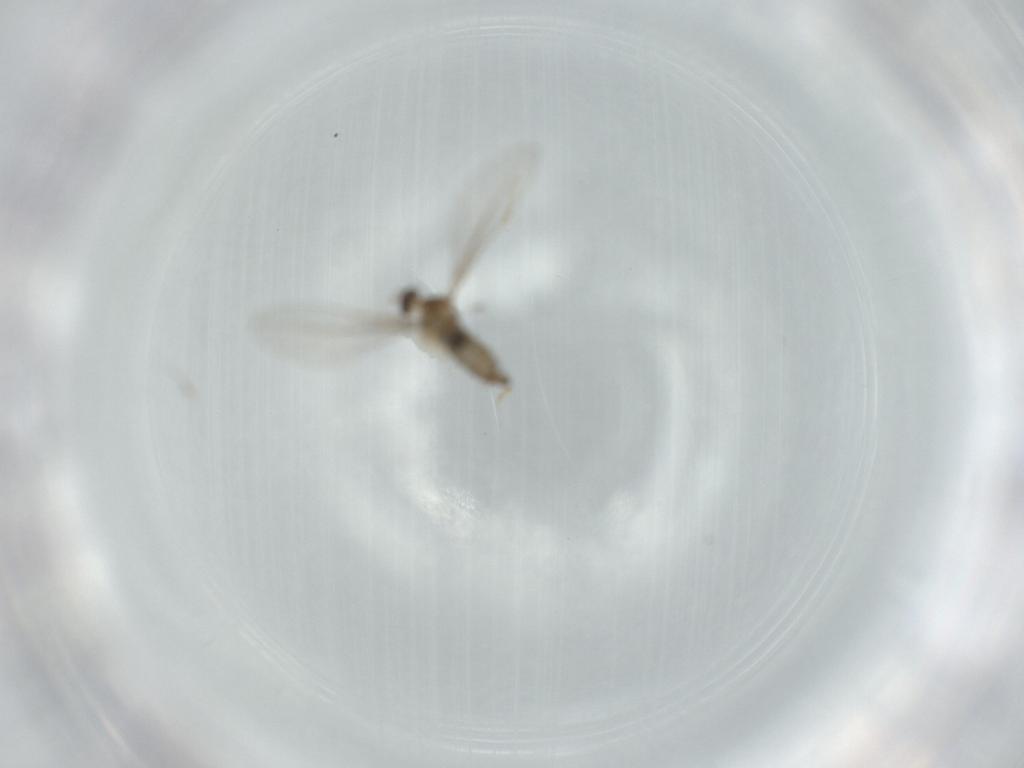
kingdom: Animalia
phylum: Arthropoda
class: Insecta
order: Diptera
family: Cecidomyiidae
